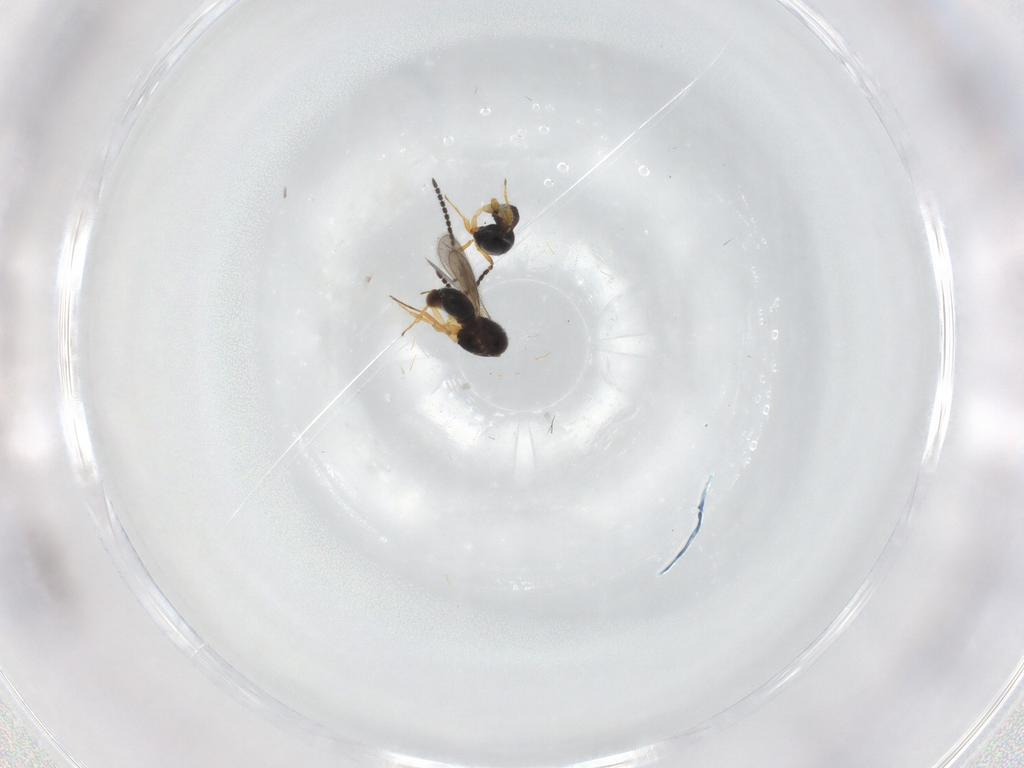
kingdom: Animalia
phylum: Arthropoda
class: Insecta
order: Hymenoptera
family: Scelionidae
